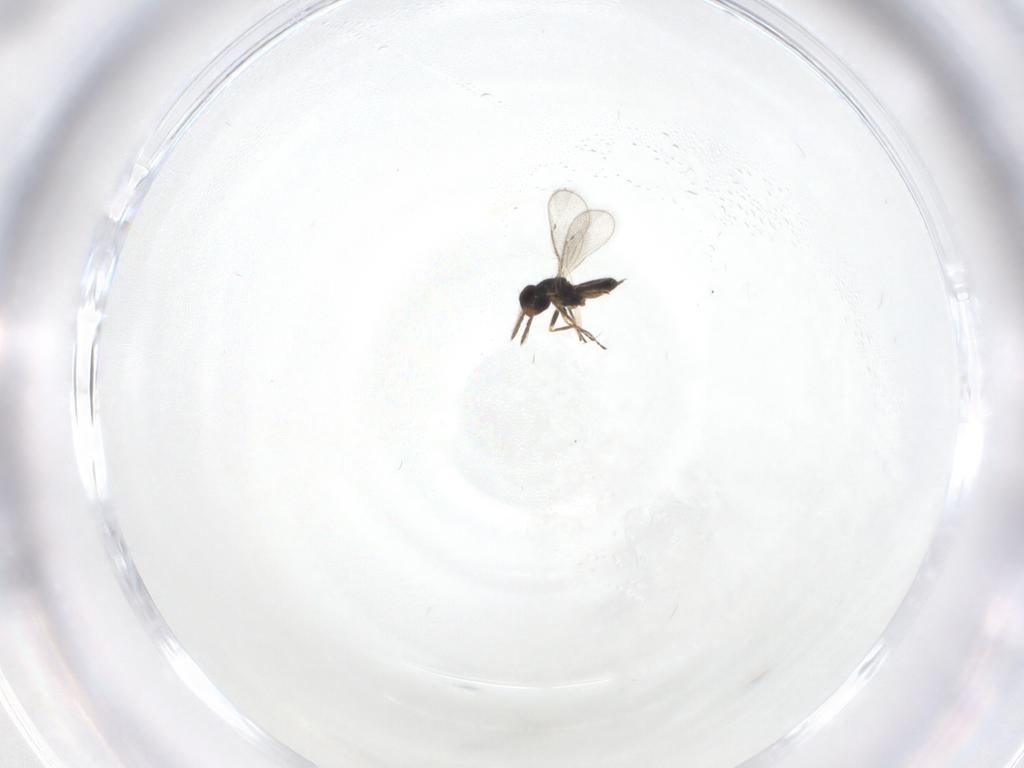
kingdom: Animalia
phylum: Arthropoda
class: Insecta
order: Hymenoptera
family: Eulophidae
